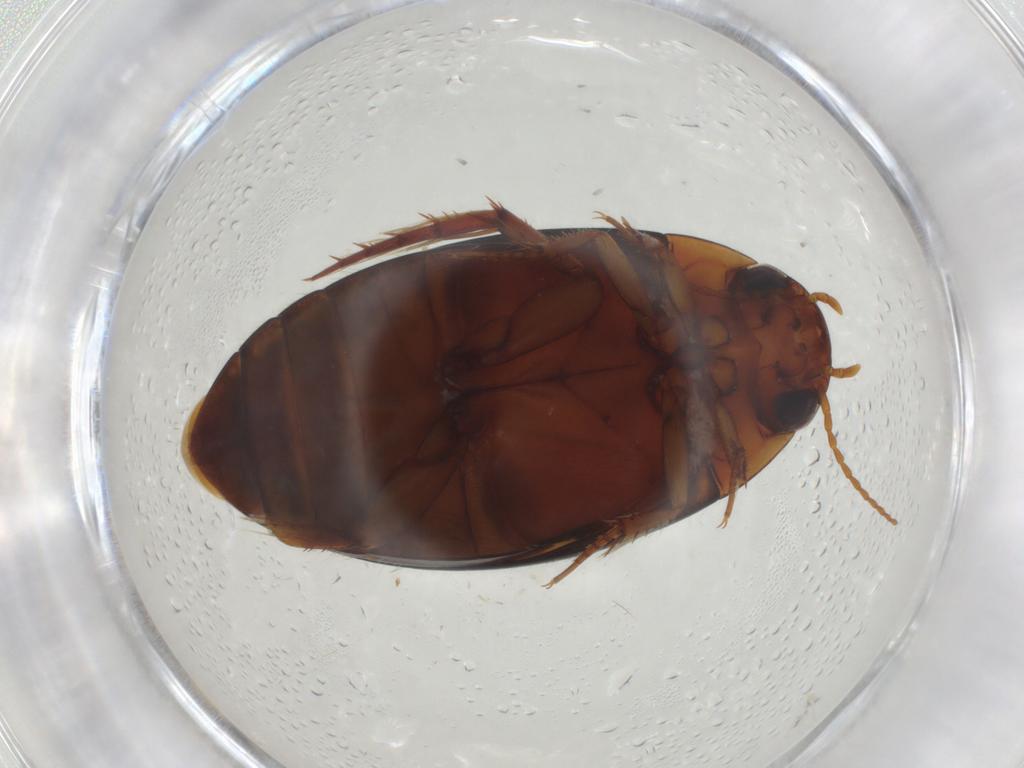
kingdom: Animalia
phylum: Arthropoda
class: Insecta
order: Coleoptera
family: Dytiscidae
